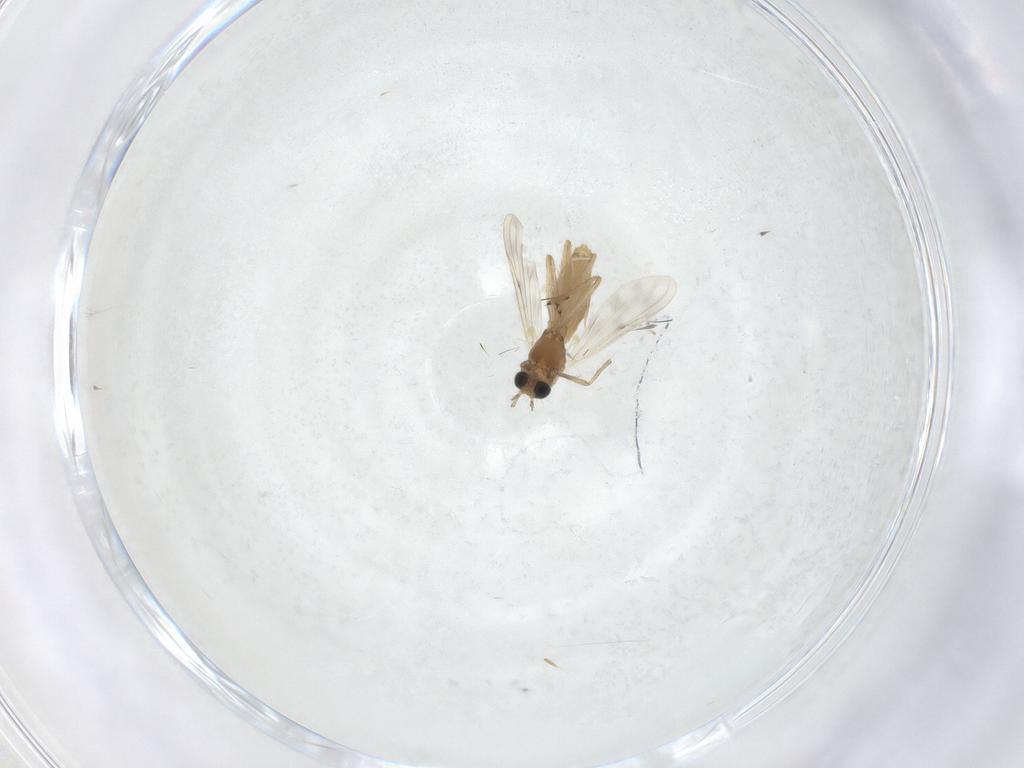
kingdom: Animalia
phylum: Arthropoda
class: Insecta
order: Diptera
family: Chironomidae
